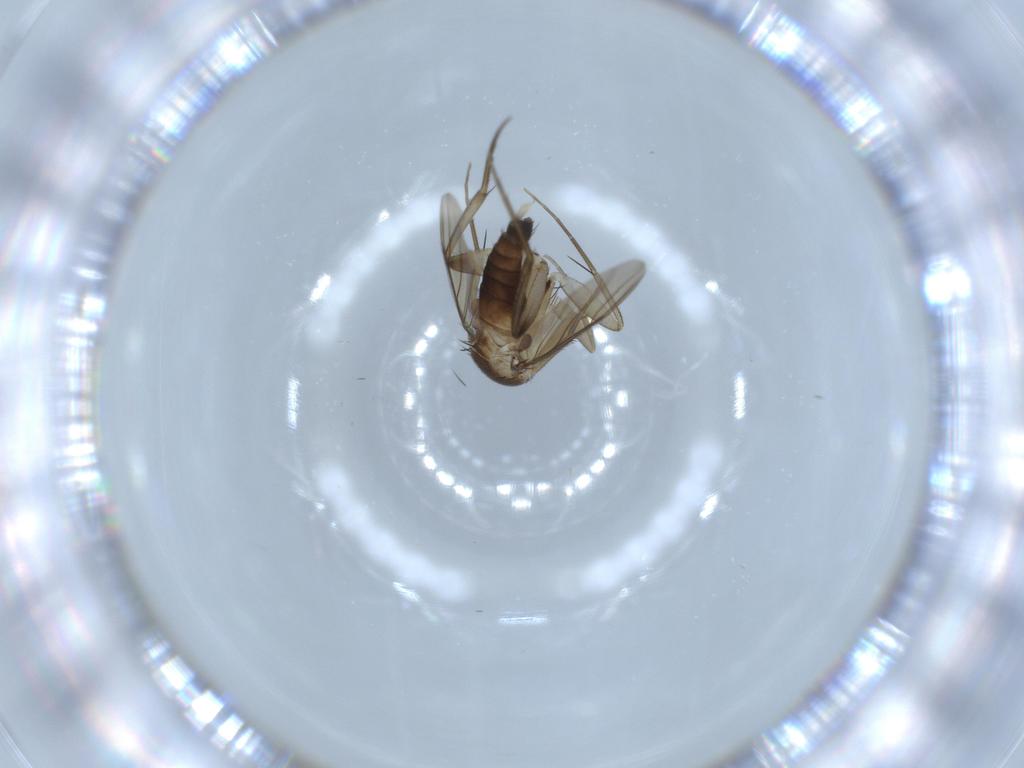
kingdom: Animalia
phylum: Arthropoda
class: Insecta
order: Diptera
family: Phoridae
